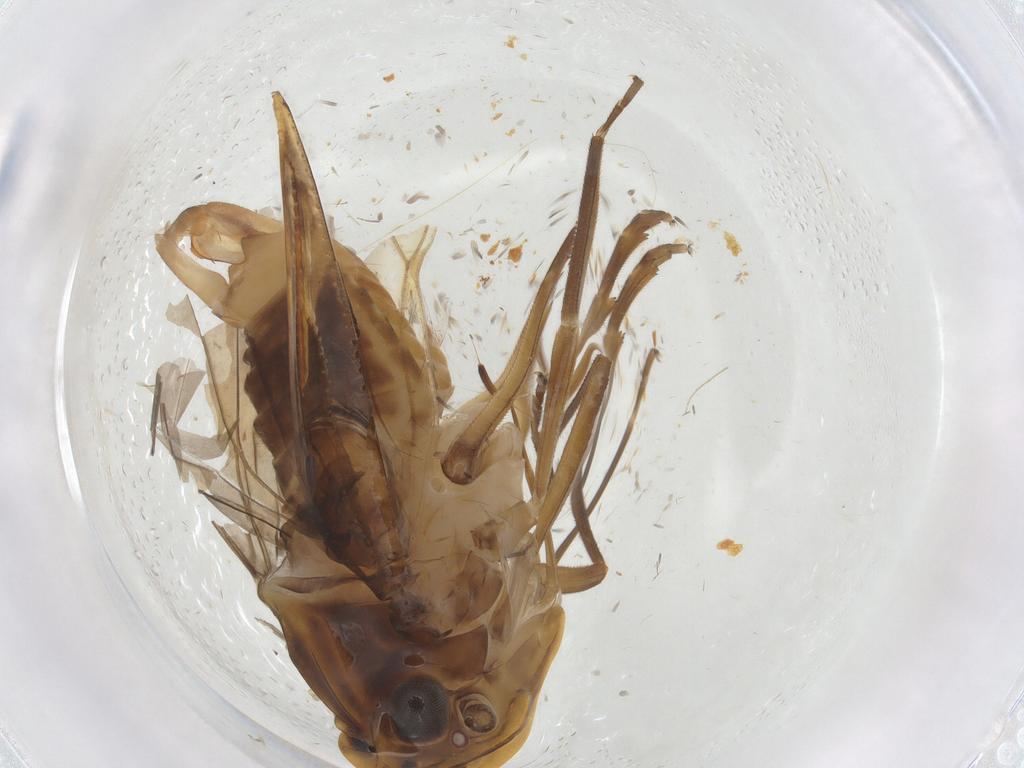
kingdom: Animalia
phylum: Arthropoda
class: Insecta
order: Hemiptera
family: Cixiidae
